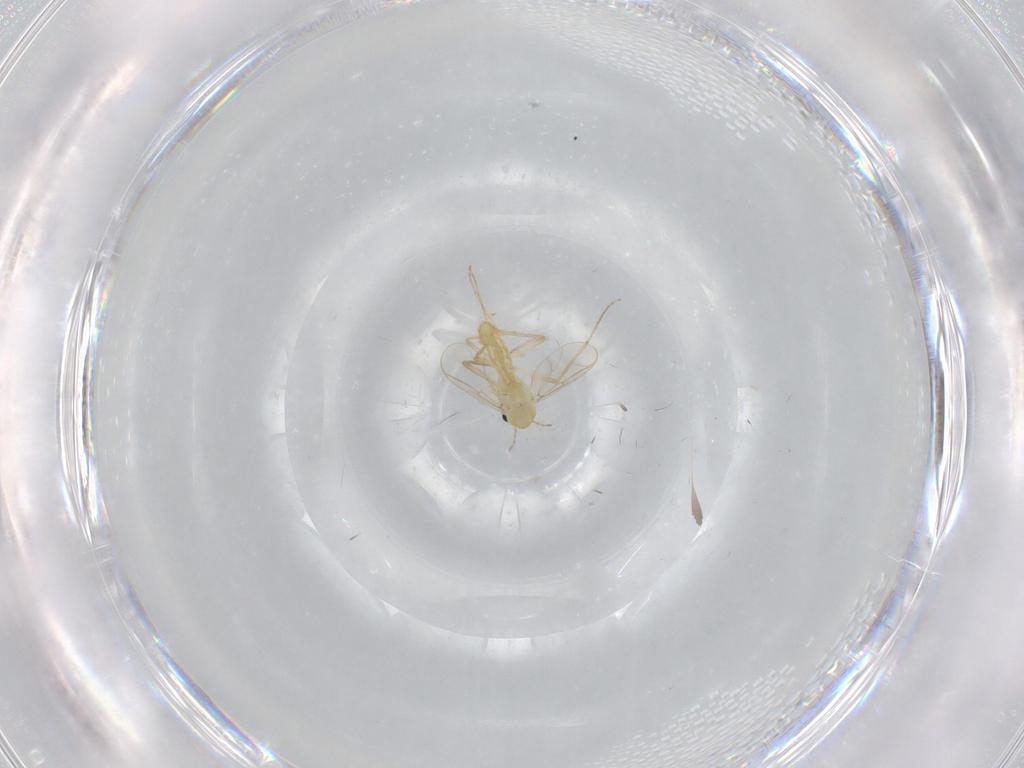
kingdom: Animalia
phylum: Arthropoda
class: Insecta
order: Diptera
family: Chironomidae
